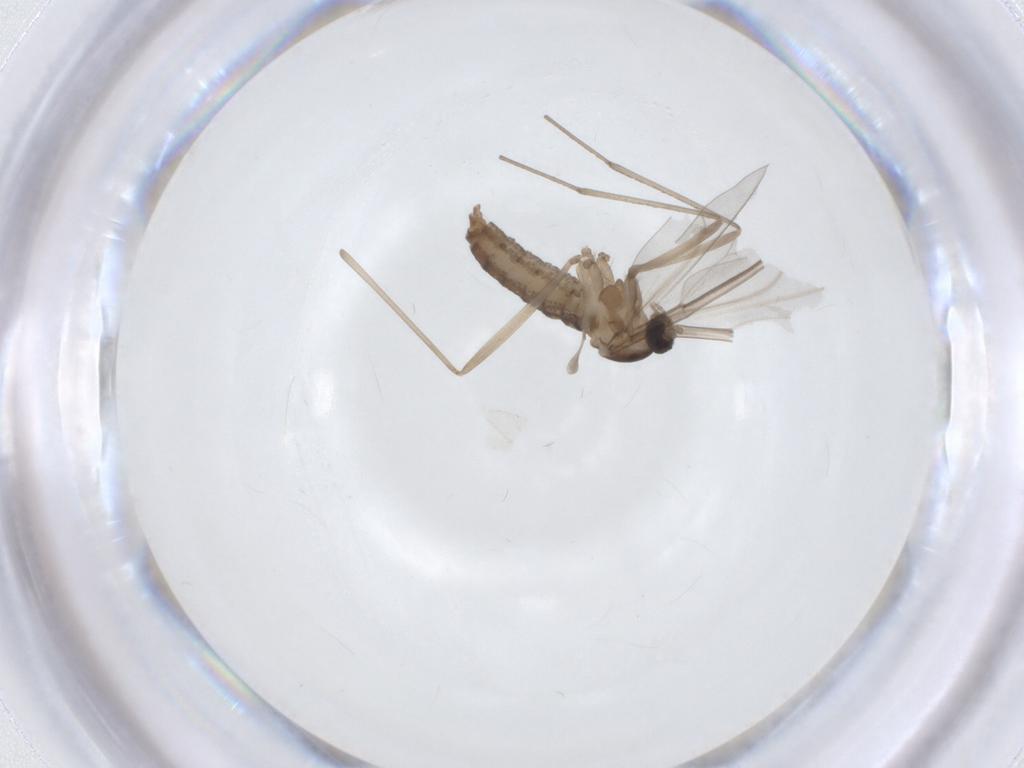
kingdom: Animalia
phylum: Arthropoda
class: Insecta
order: Diptera
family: Cecidomyiidae
